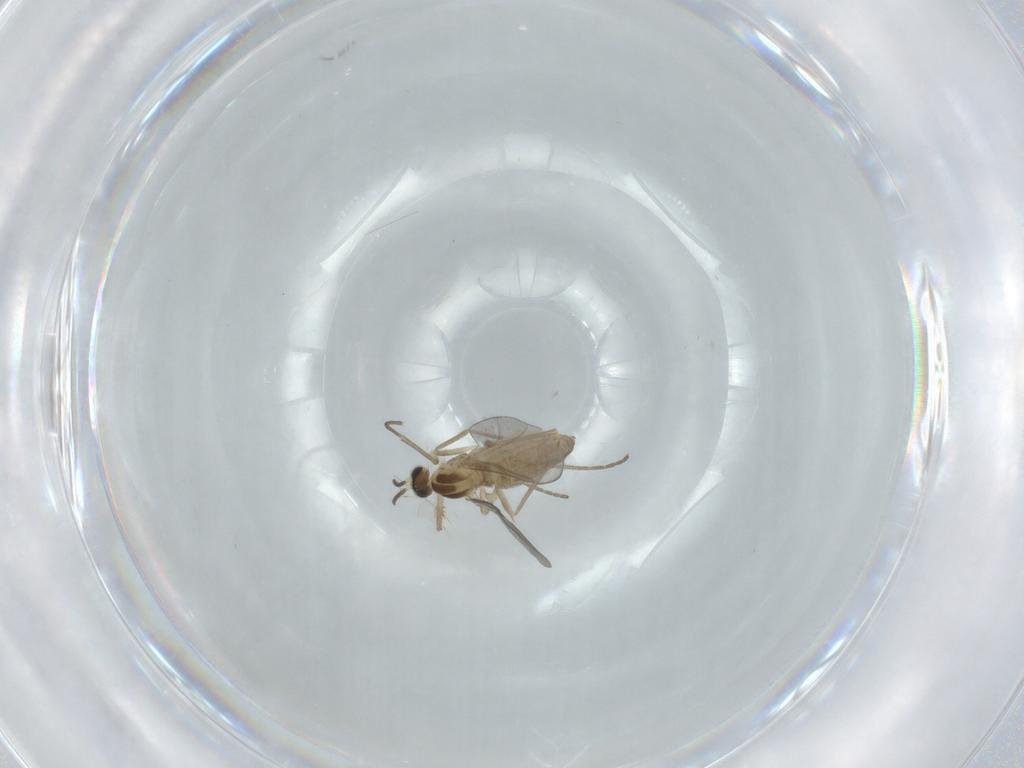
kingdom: Animalia
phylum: Arthropoda
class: Insecta
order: Diptera
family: Cecidomyiidae
